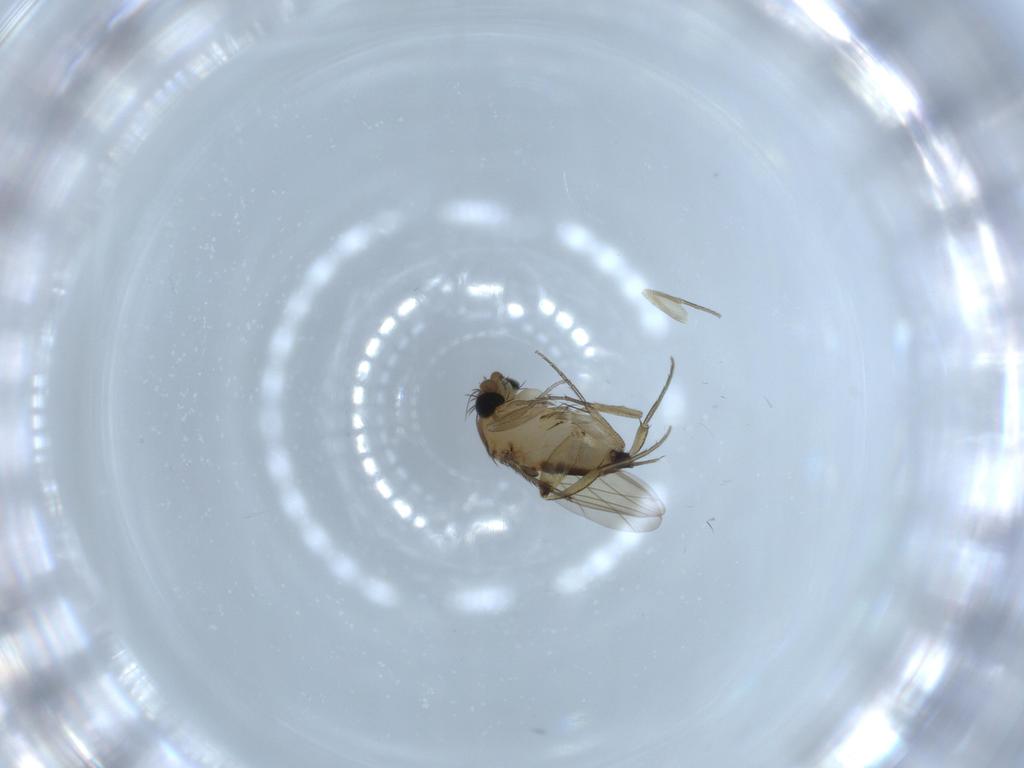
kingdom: Animalia
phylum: Arthropoda
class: Insecta
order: Diptera
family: Phoridae
